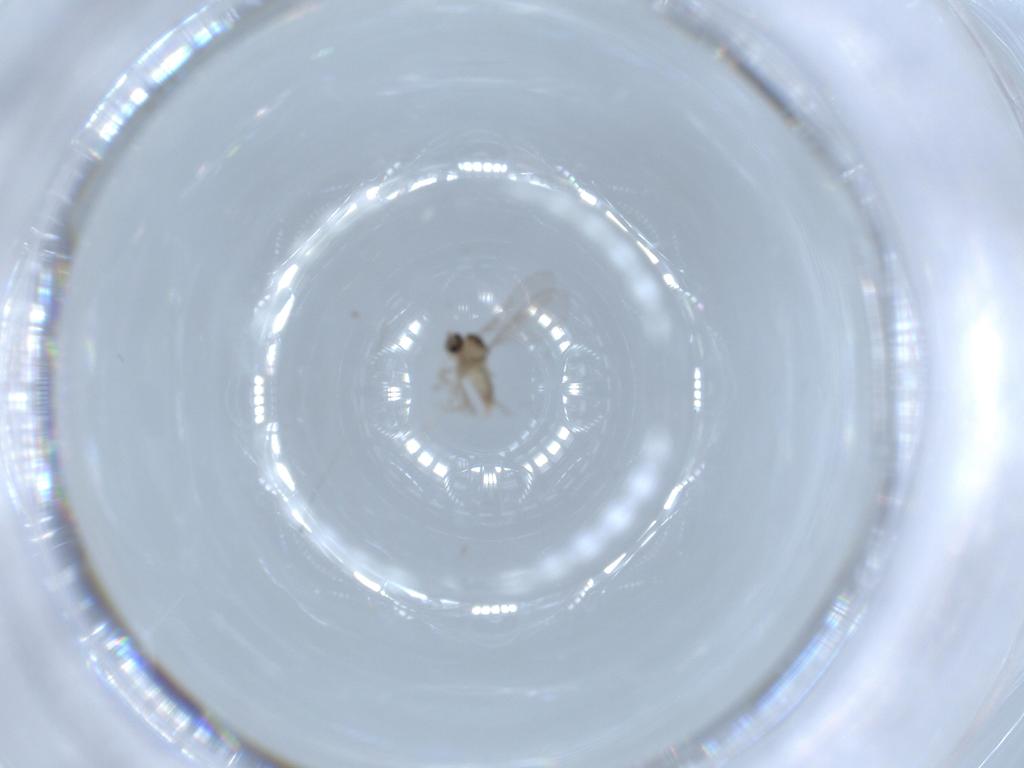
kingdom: Animalia
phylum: Arthropoda
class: Insecta
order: Diptera
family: Cecidomyiidae
